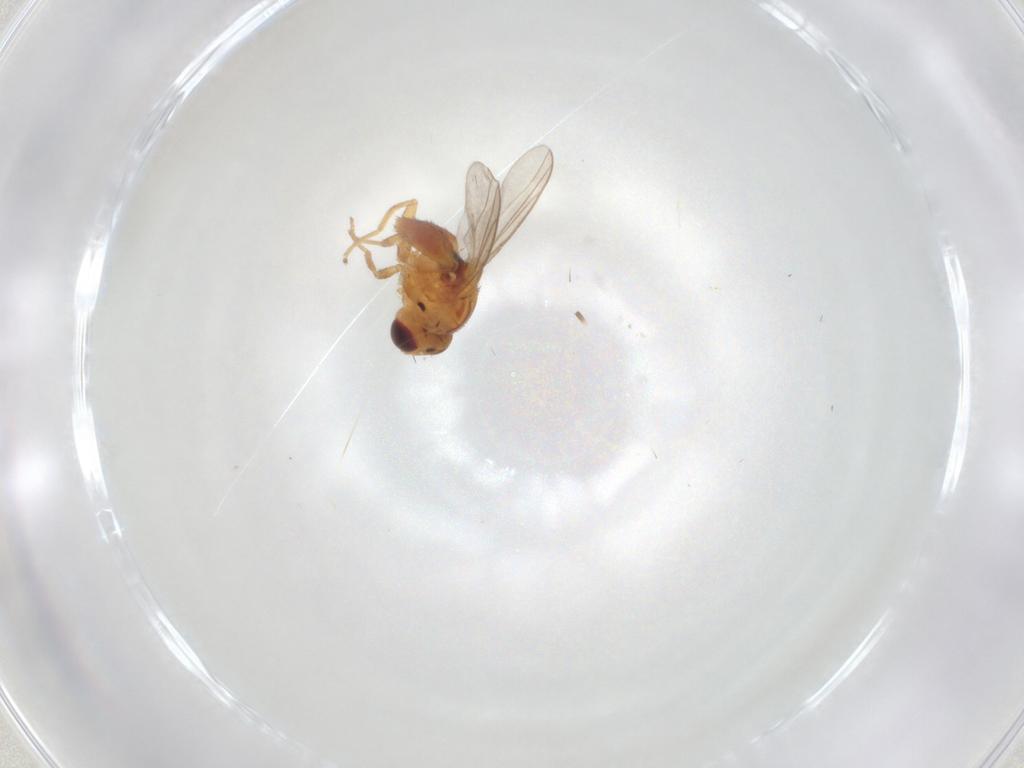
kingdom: Animalia
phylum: Arthropoda
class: Insecta
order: Diptera
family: Chloropidae
